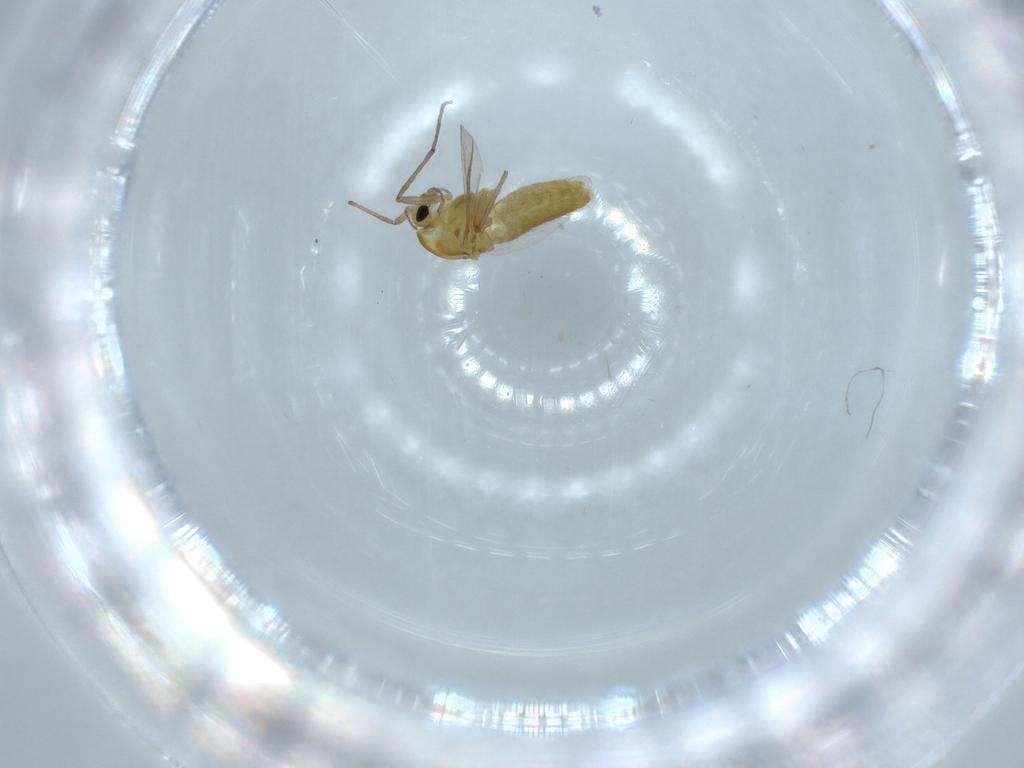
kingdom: Animalia
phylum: Arthropoda
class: Insecta
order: Diptera
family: Chironomidae
